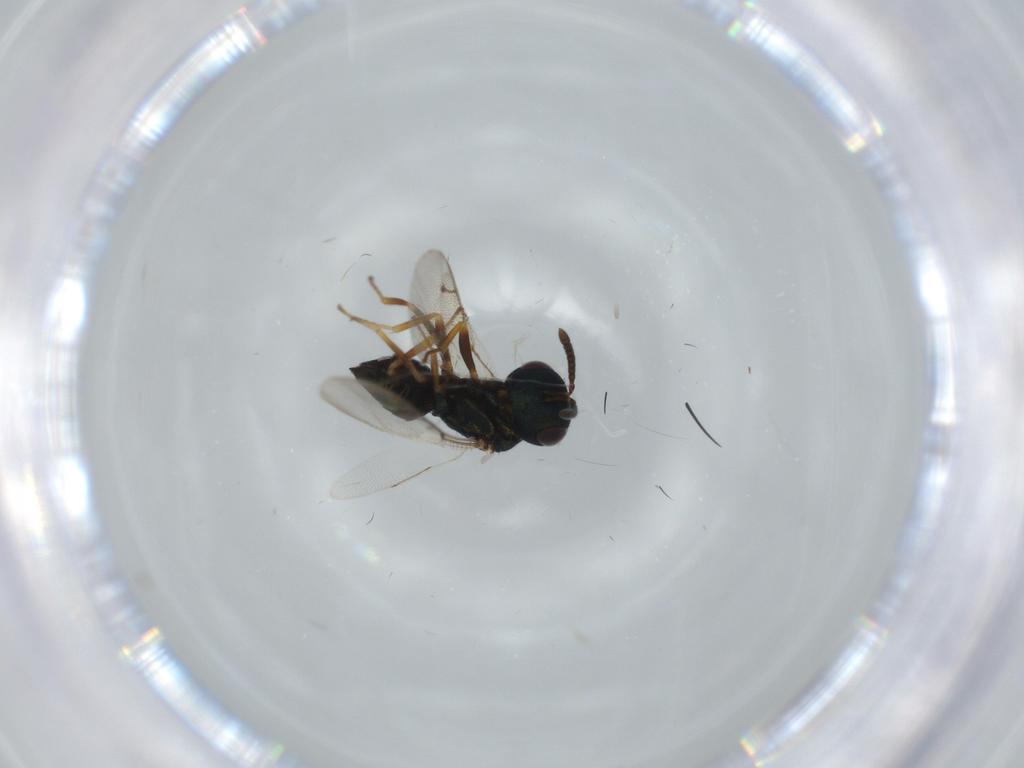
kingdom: Animalia
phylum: Arthropoda
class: Insecta
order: Hymenoptera
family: Pteromalidae
